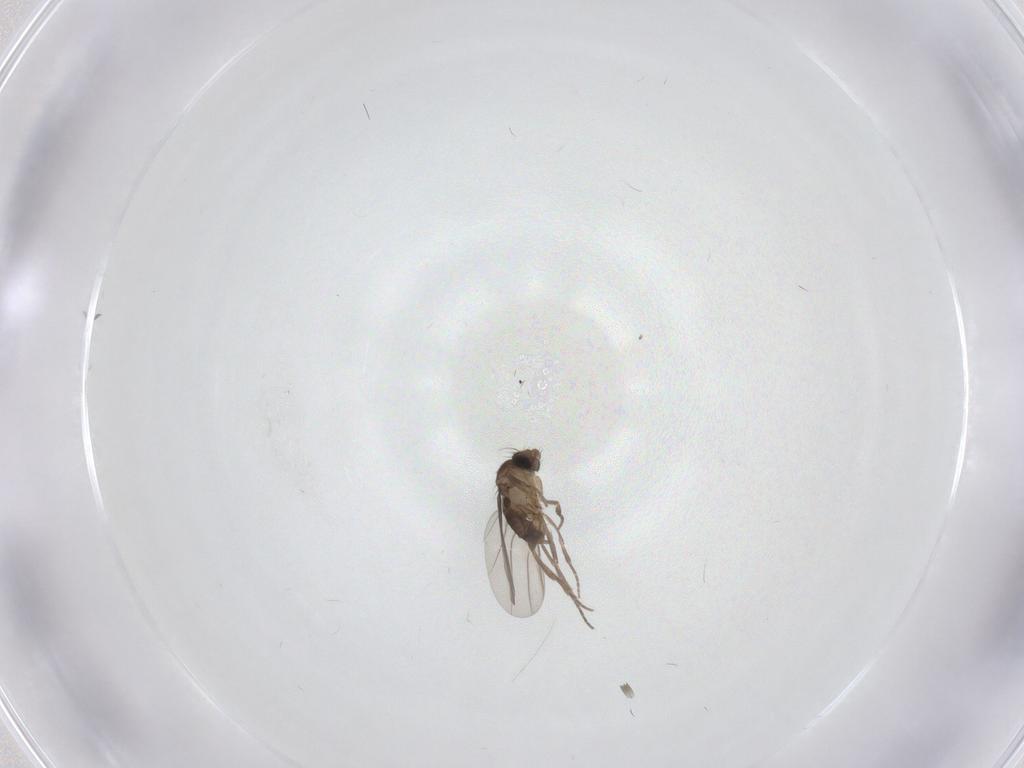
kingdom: Animalia
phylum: Arthropoda
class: Insecta
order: Diptera
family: Phoridae
